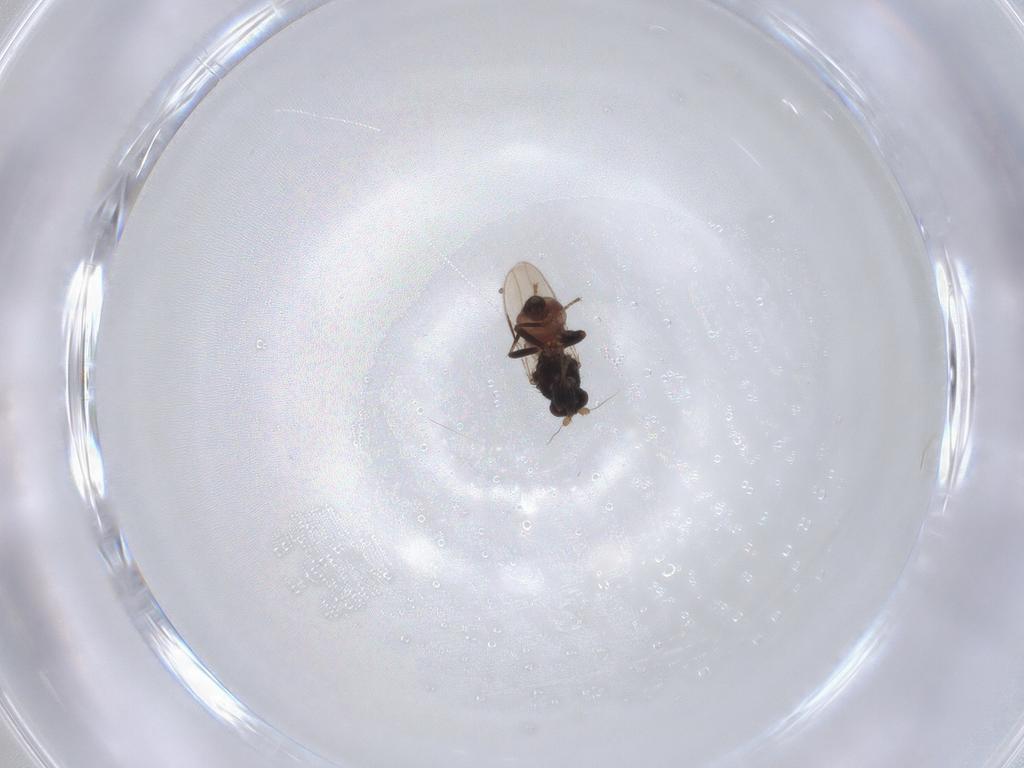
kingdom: Animalia
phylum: Arthropoda
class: Insecta
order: Diptera
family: Sphaeroceridae
